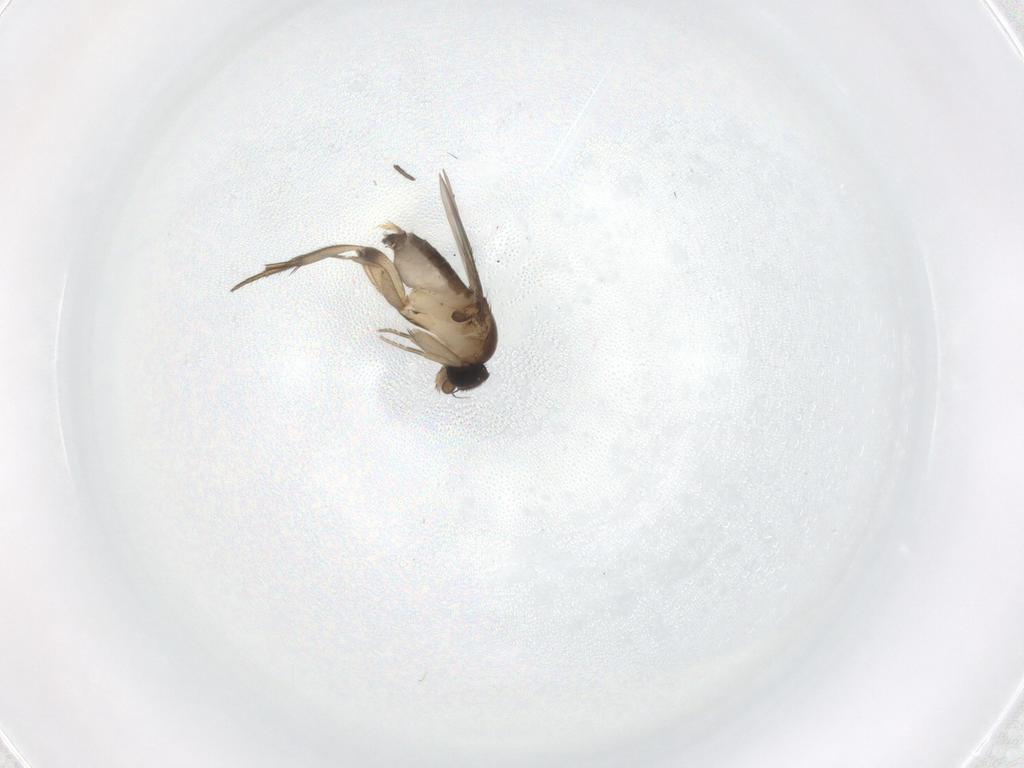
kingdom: Animalia
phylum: Arthropoda
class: Insecta
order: Diptera
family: Phoridae
